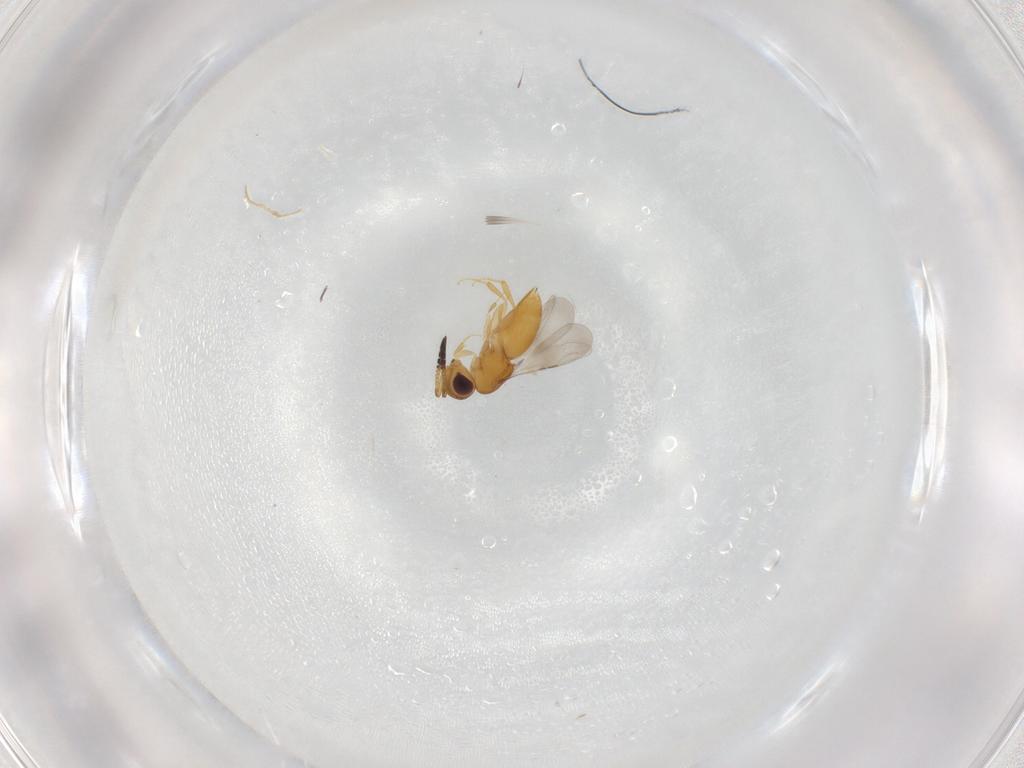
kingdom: Animalia
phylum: Arthropoda
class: Insecta
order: Hymenoptera
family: Ceraphronidae
